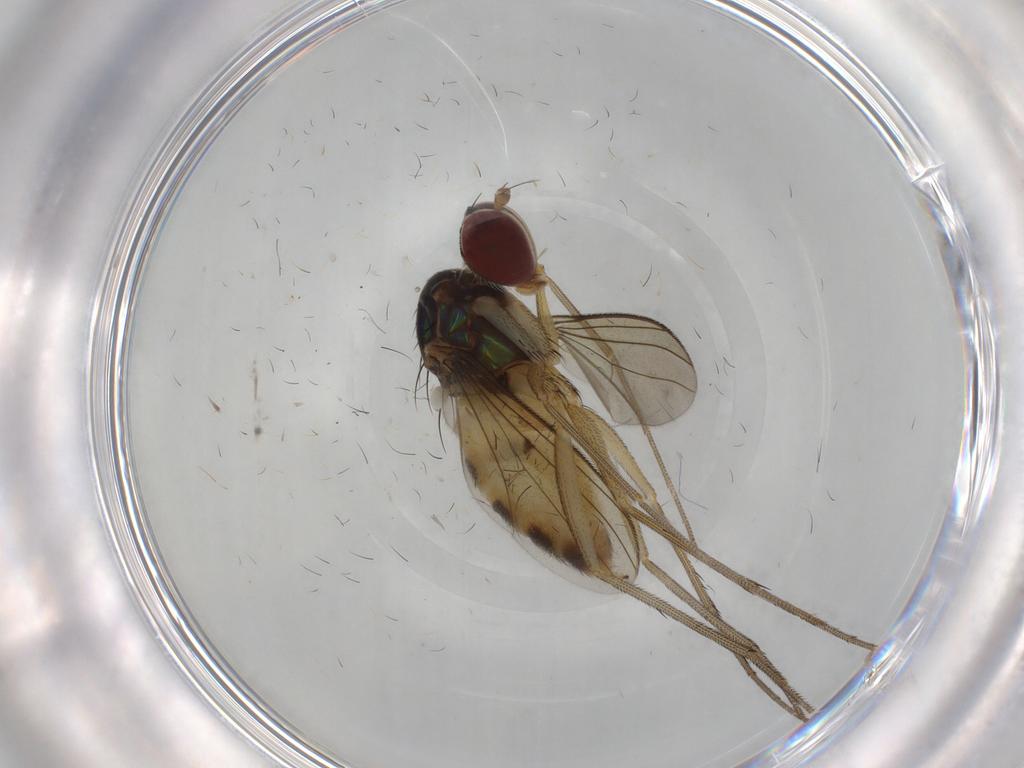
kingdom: Animalia
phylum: Arthropoda
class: Insecta
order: Diptera
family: Dolichopodidae
